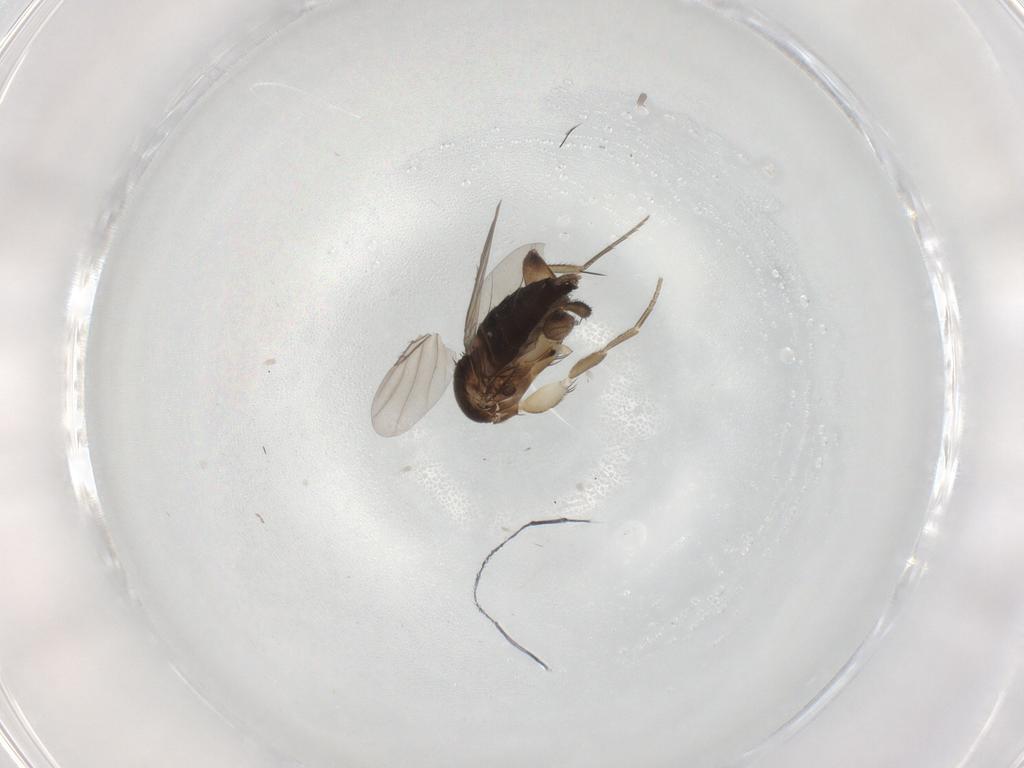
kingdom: Animalia
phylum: Arthropoda
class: Insecta
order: Diptera
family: Phoridae
